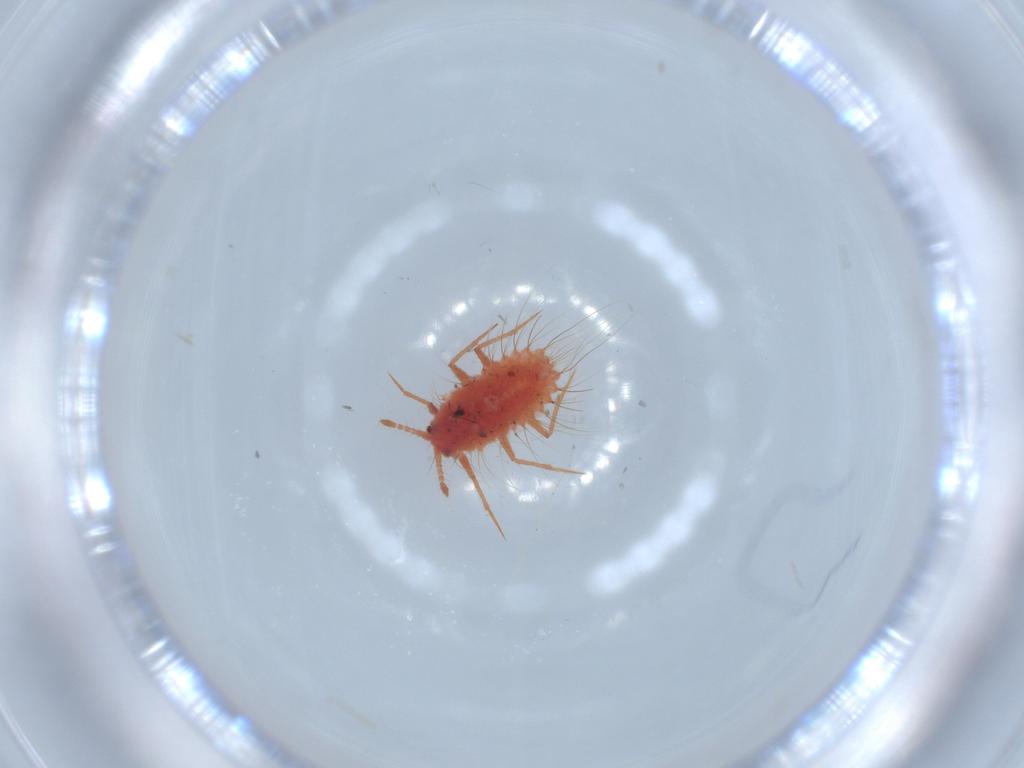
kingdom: Animalia
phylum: Arthropoda
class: Insecta
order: Hemiptera
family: Monophlebidae
